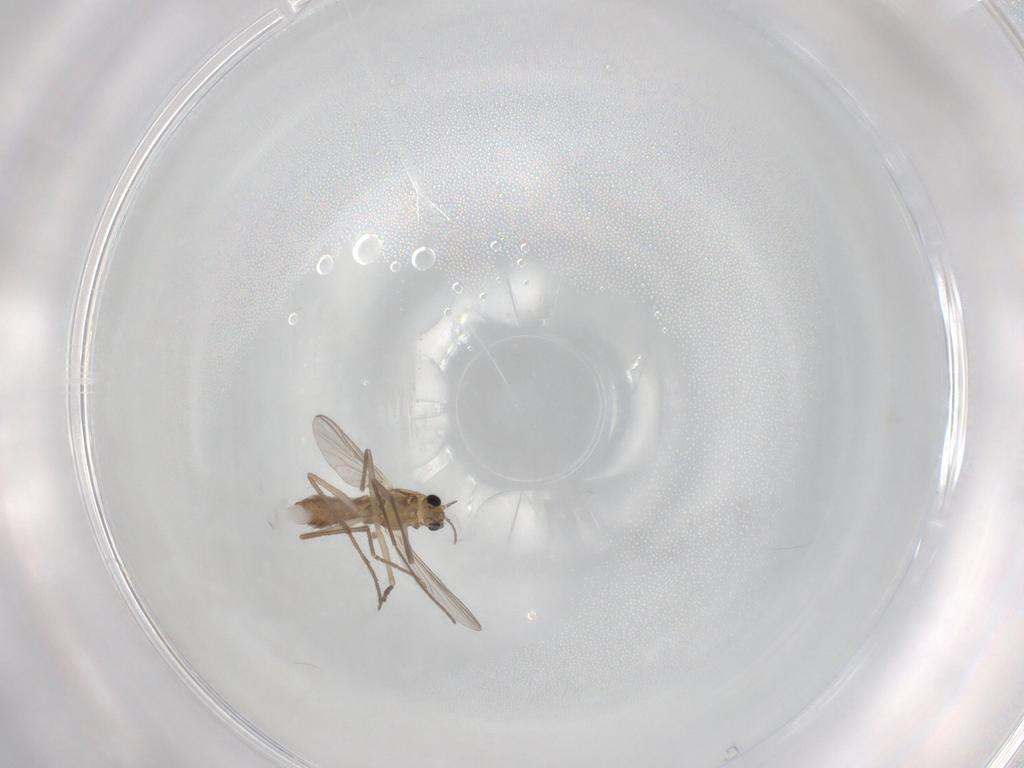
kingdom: Animalia
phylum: Arthropoda
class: Insecta
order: Diptera
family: Chironomidae
